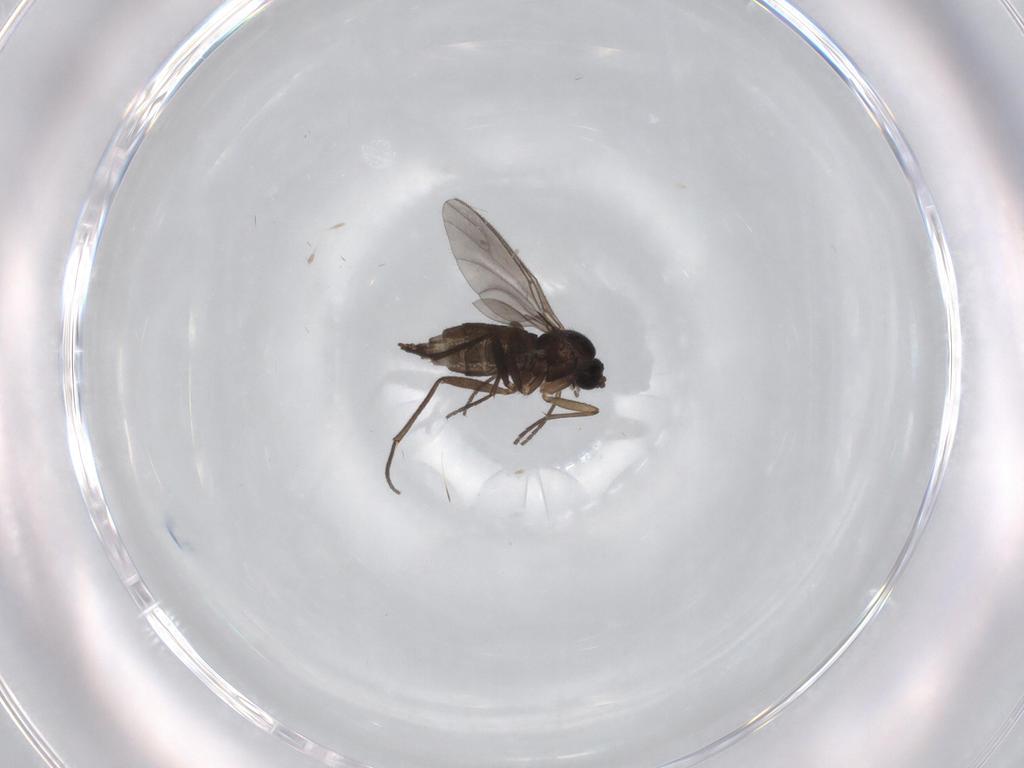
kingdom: Animalia
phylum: Arthropoda
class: Insecta
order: Diptera
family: Sciaridae
